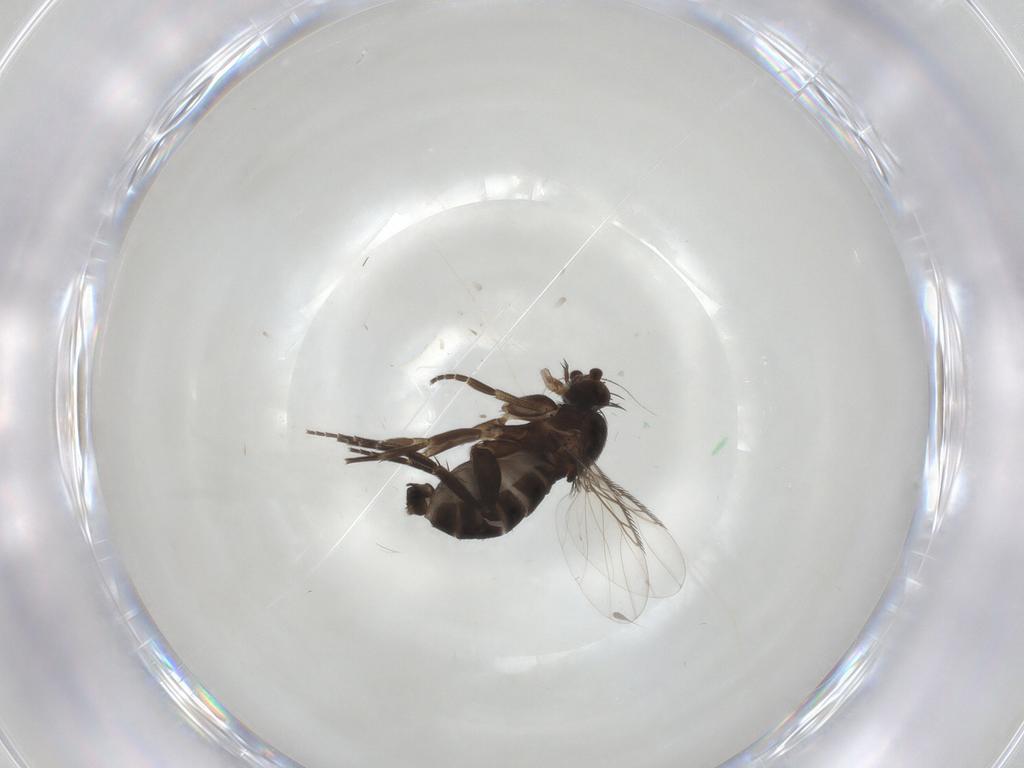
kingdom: Animalia
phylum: Arthropoda
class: Insecta
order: Diptera
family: Phoridae
